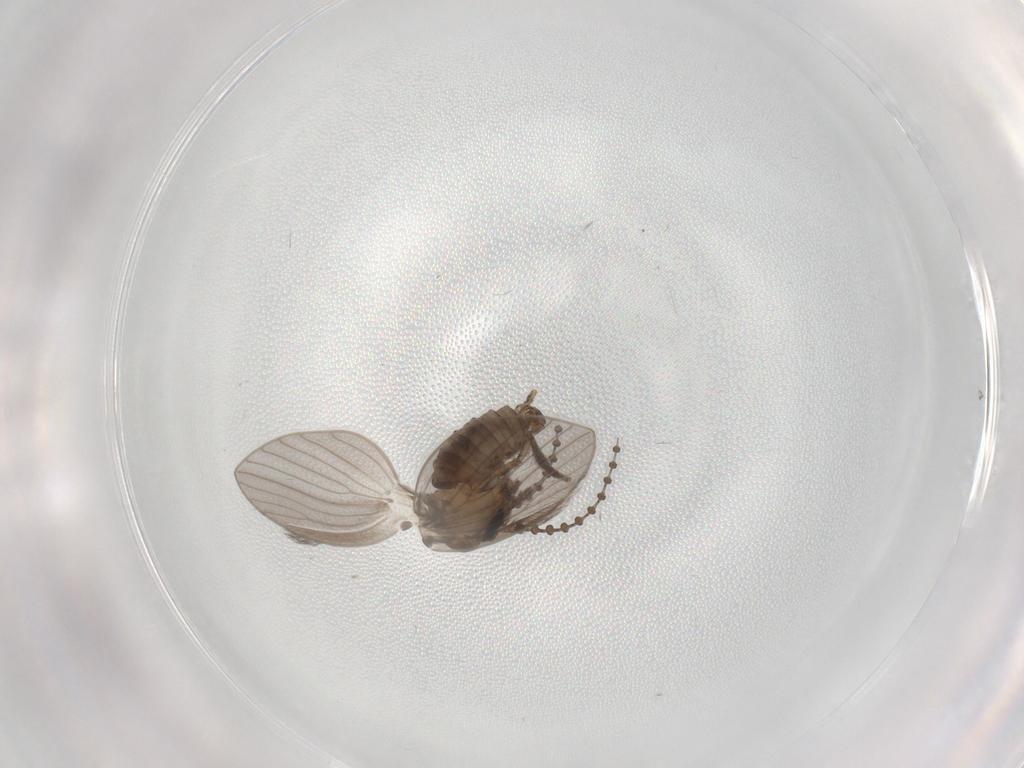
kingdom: Animalia
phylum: Arthropoda
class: Insecta
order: Diptera
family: Psychodidae
